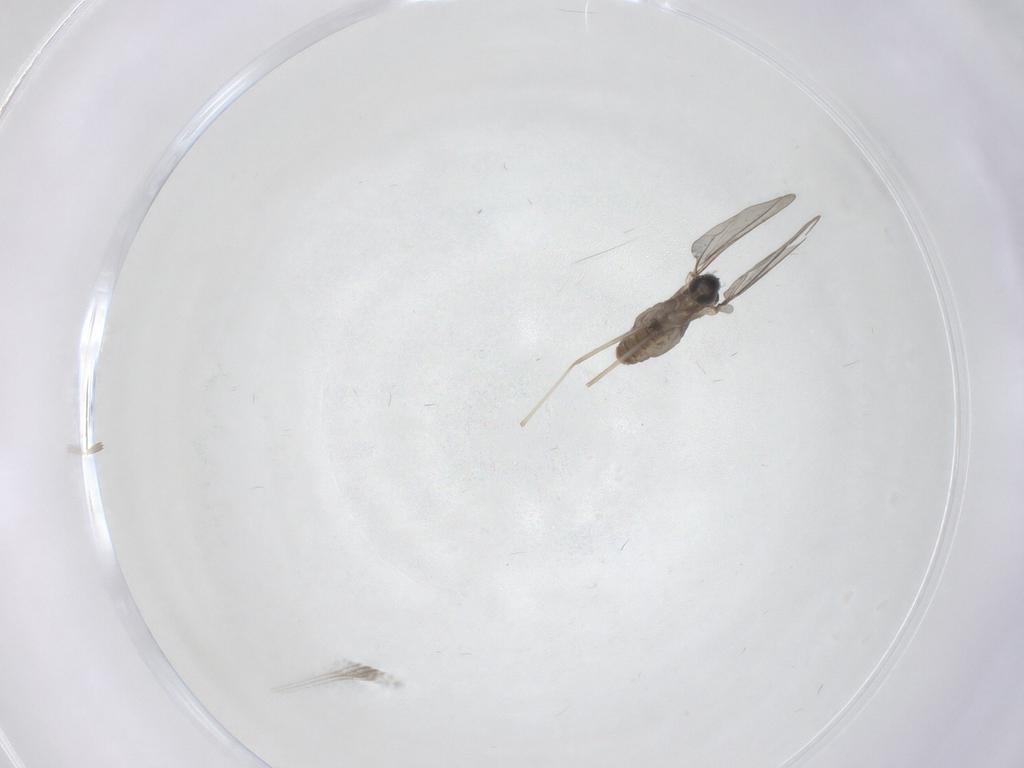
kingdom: Animalia
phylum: Arthropoda
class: Insecta
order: Diptera
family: Cecidomyiidae
